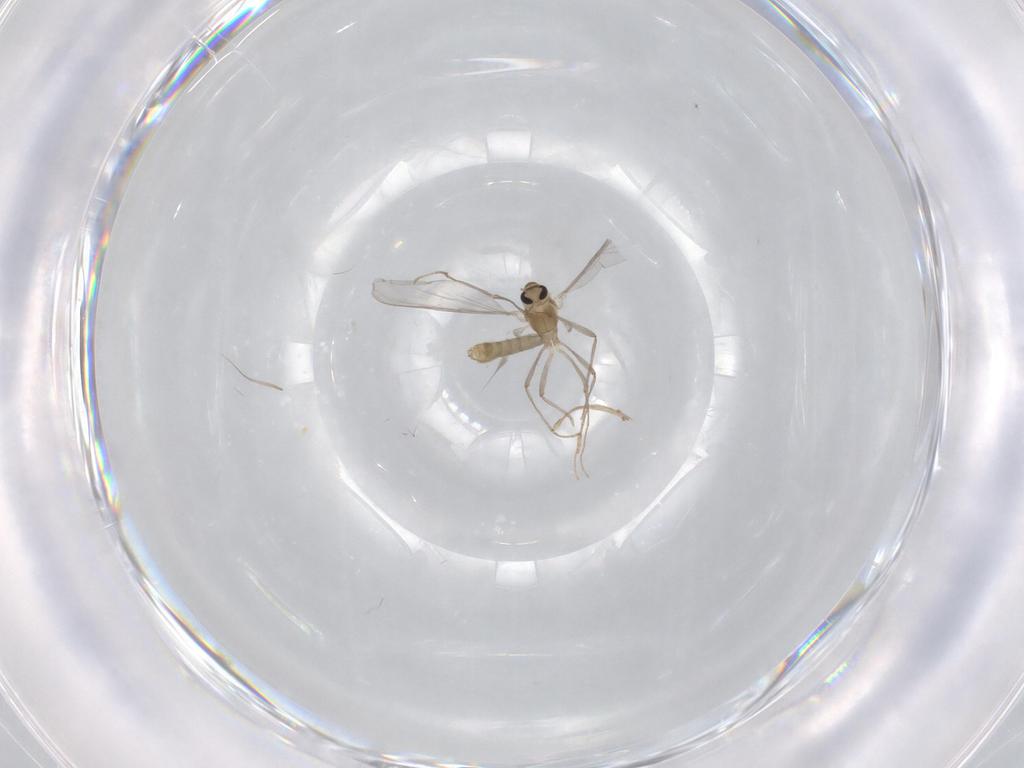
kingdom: Animalia
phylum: Arthropoda
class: Insecta
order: Diptera
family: Chironomidae
